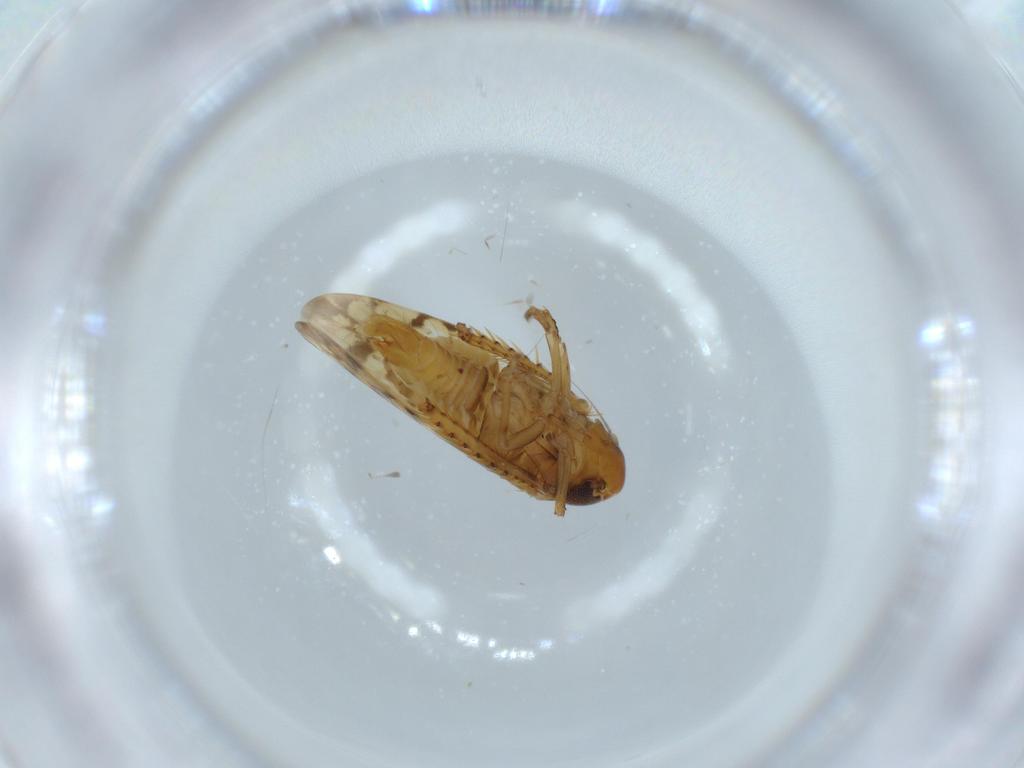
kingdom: Animalia
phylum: Arthropoda
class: Insecta
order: Hemiptera
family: Cicadellidae
